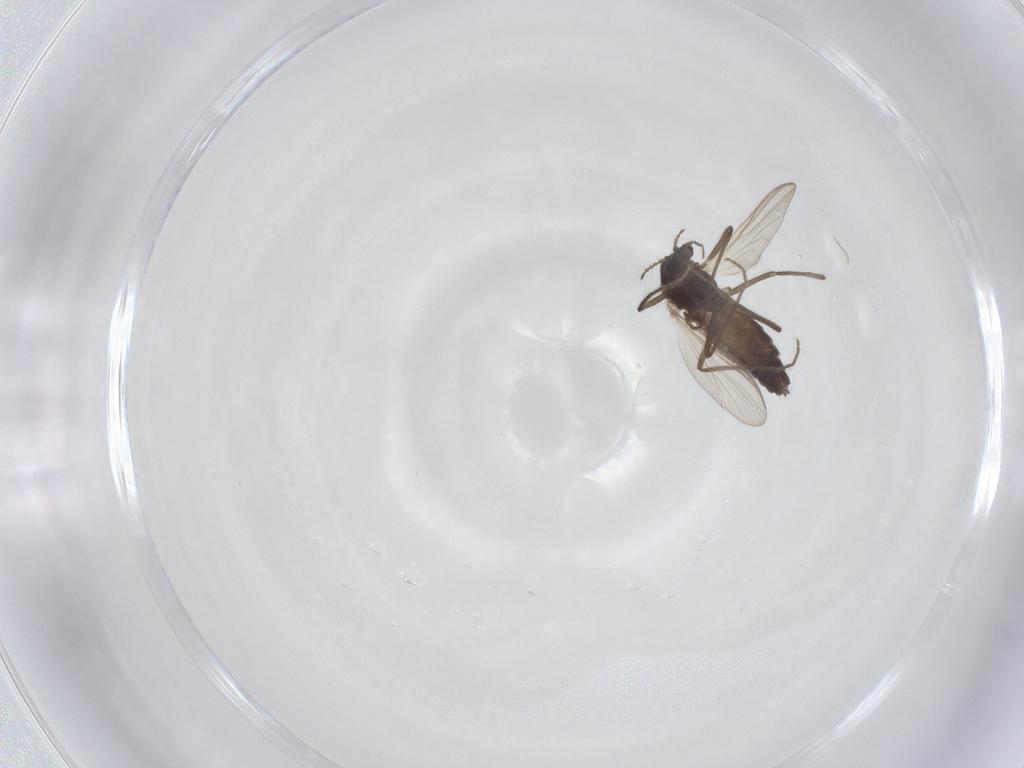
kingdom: Animalia
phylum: Arthropoda
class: Insecta
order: Diptera
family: Chironomidae
